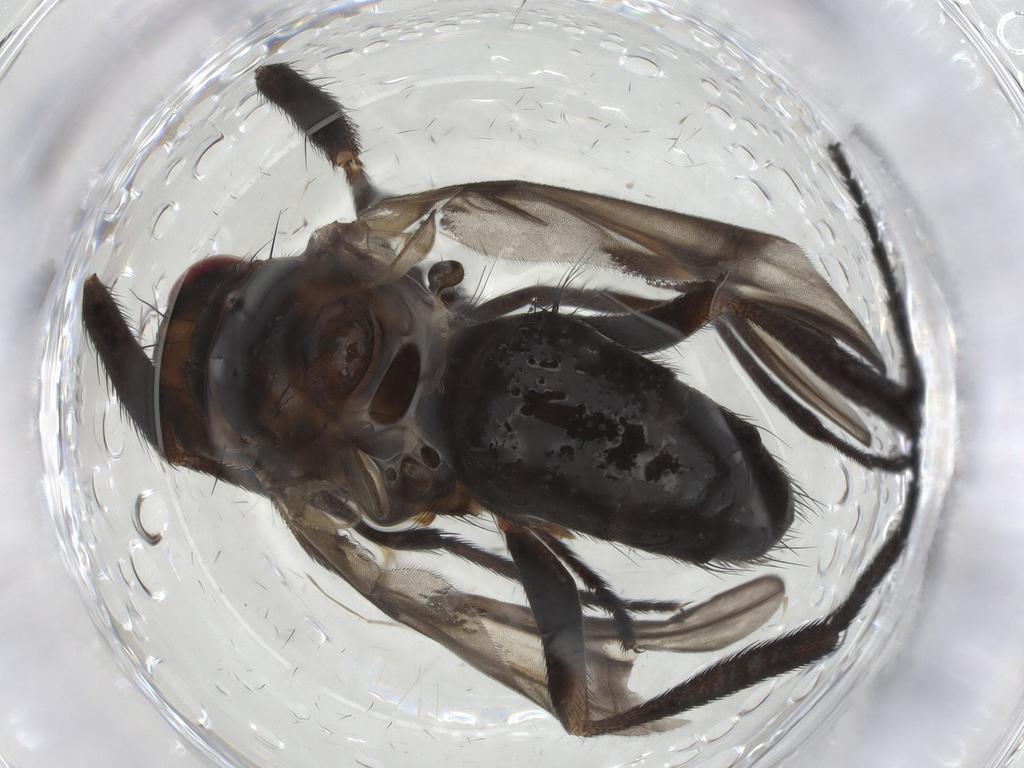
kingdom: Animalia
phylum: Arthropoda
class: Insecta
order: Diptera
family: Calliphoridae
